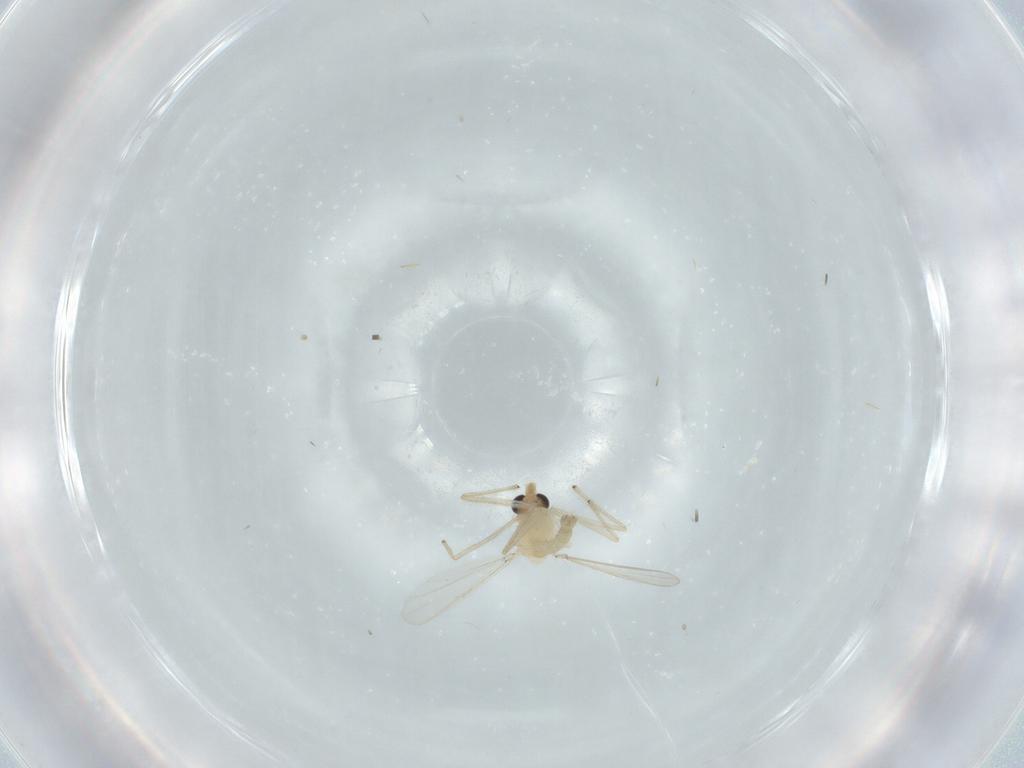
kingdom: Animalia
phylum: Arthropoda
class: Insecta
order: Diptera
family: Chironomidae
